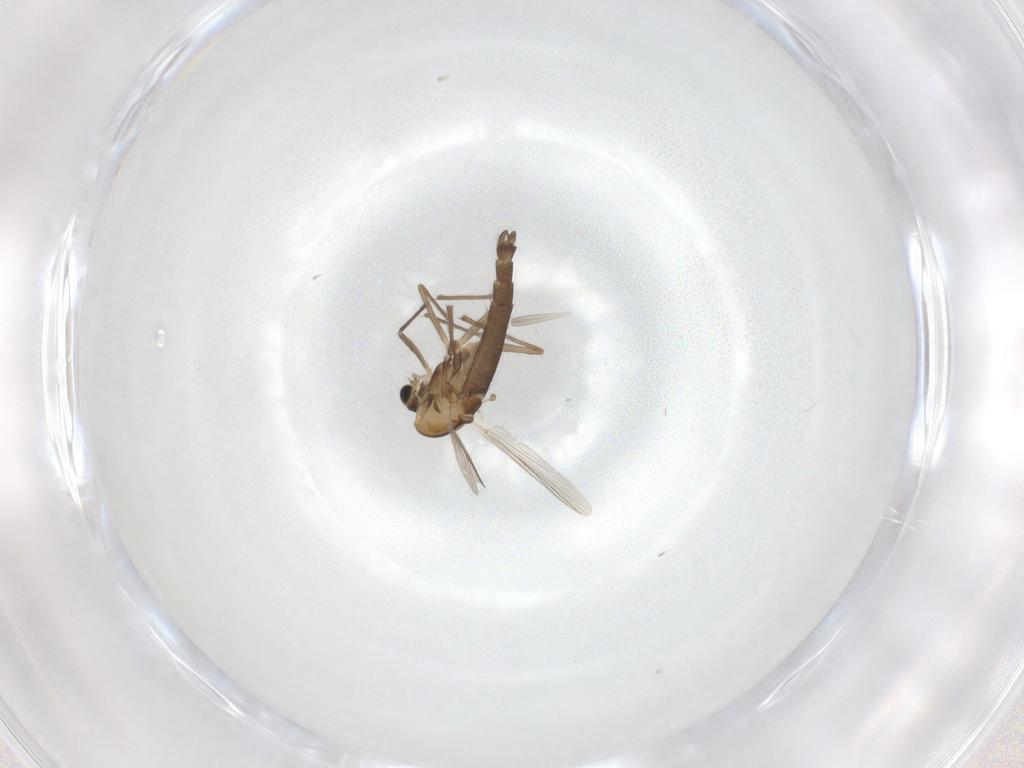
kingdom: Animalia
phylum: Arthropoda
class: Insecta
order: Diptera
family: Chironomidae
